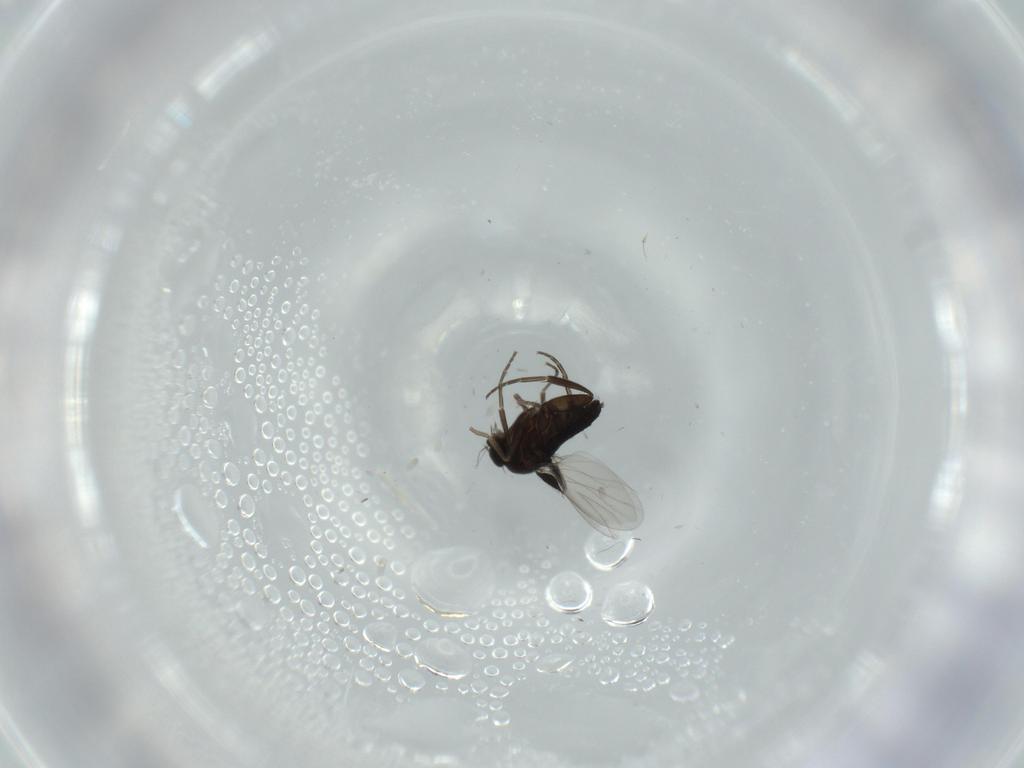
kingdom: Animalia
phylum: Arthropoda
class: Insecta
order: Diptera
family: Phoridae
